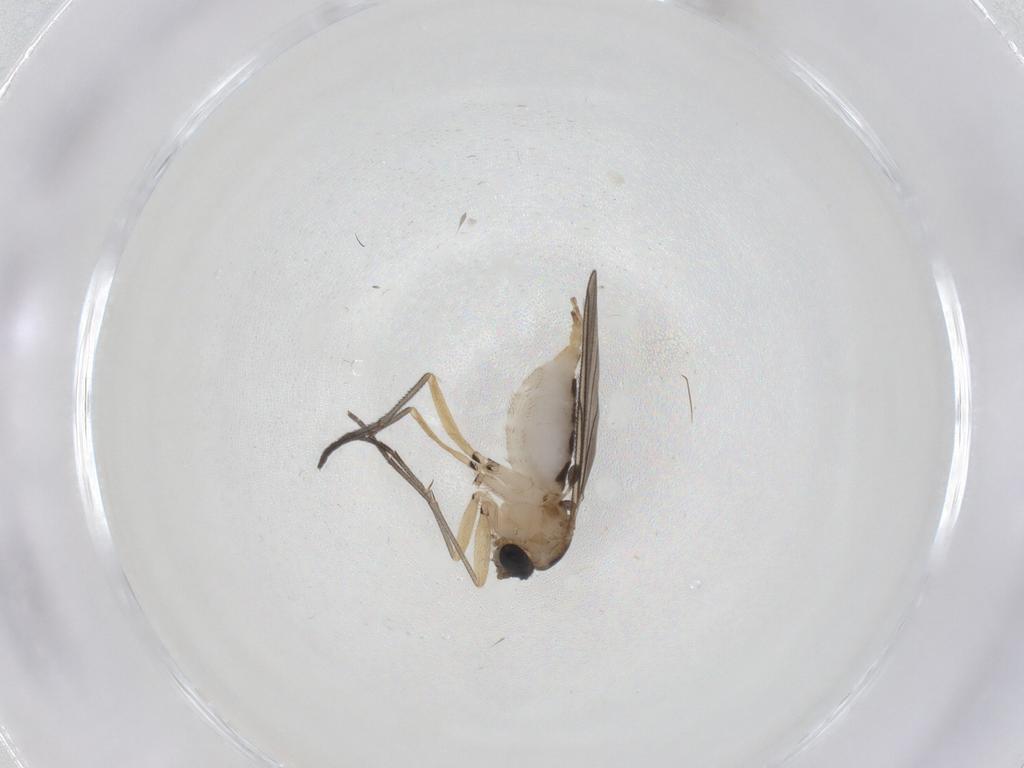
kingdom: Animalia
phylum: Arthropoda
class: Insecta
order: Diptera
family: Sciaridae
